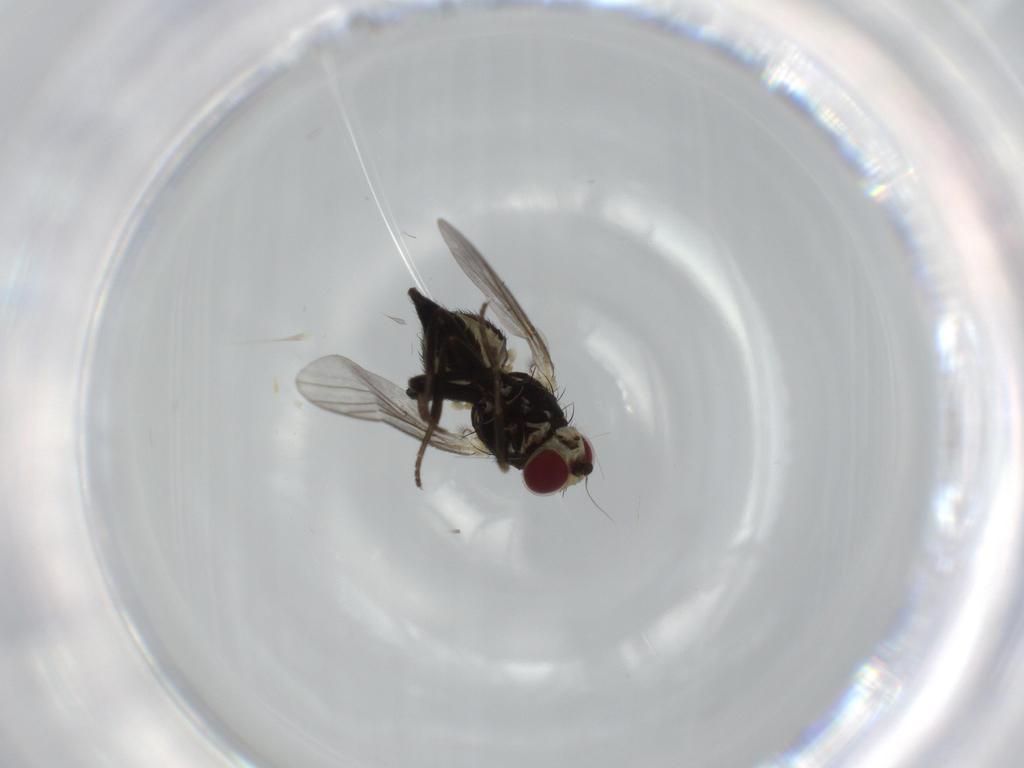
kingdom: Animalia
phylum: Arthropoda
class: Insecta
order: Diptera
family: Agromyzidae
